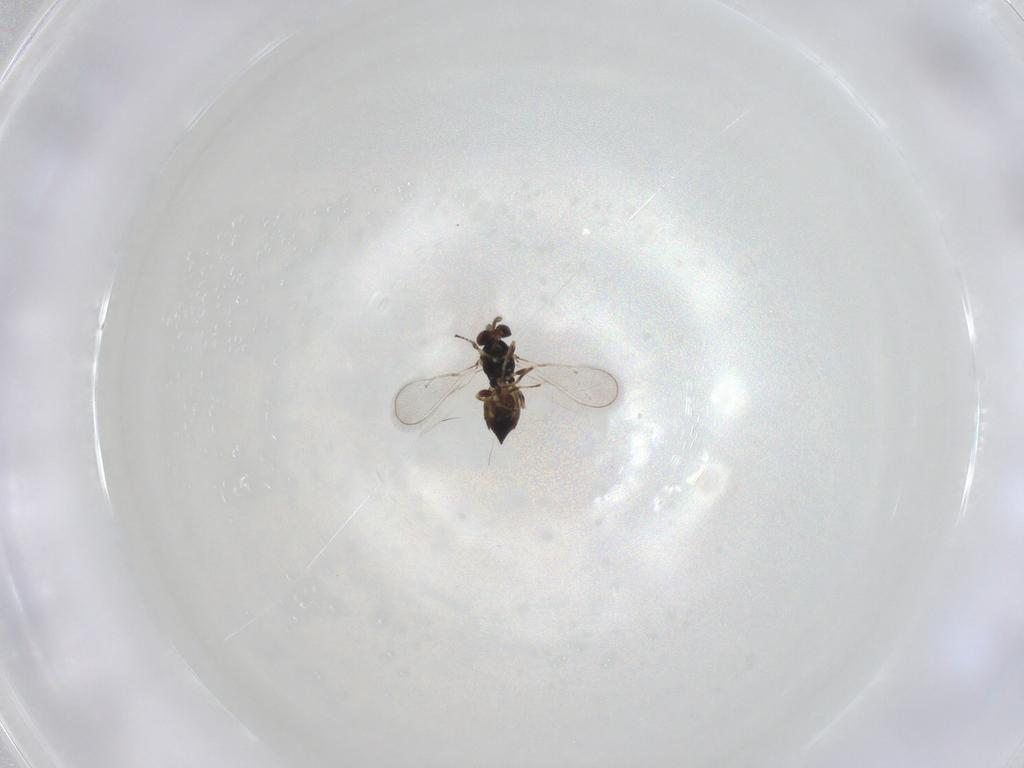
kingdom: Animalia
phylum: Arthropoda
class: Insecta
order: Hymenoptera
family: Eulophidae
